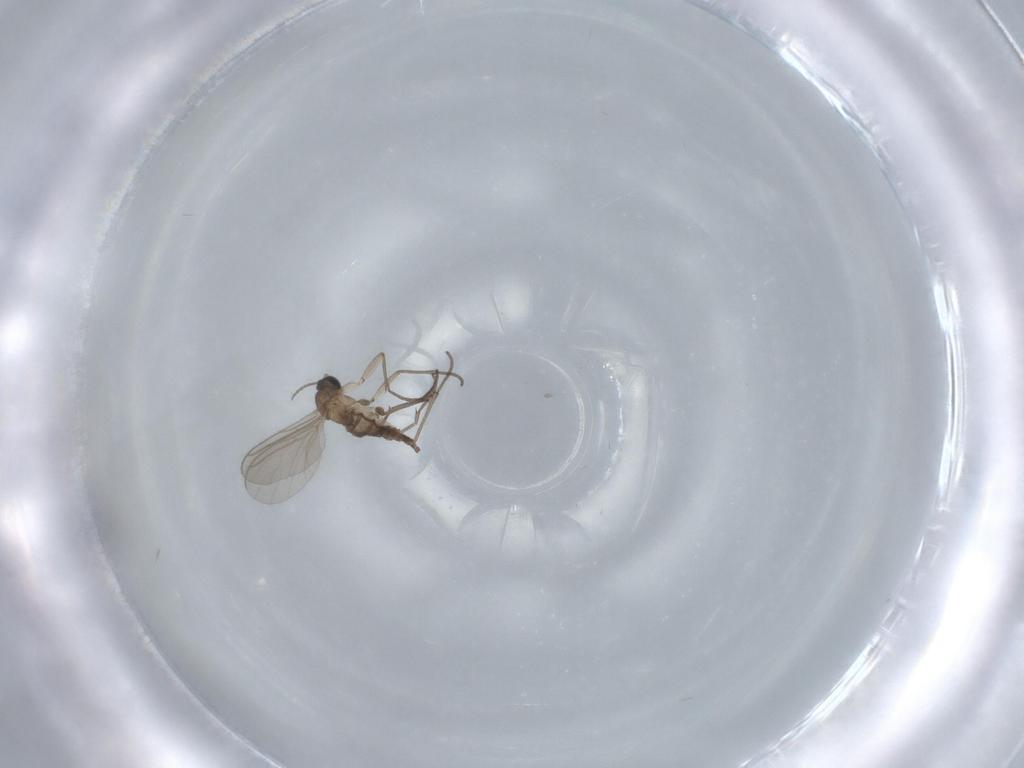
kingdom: Animalia
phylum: Arthropoda
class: Insecta
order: Diptera
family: Sciaridae
